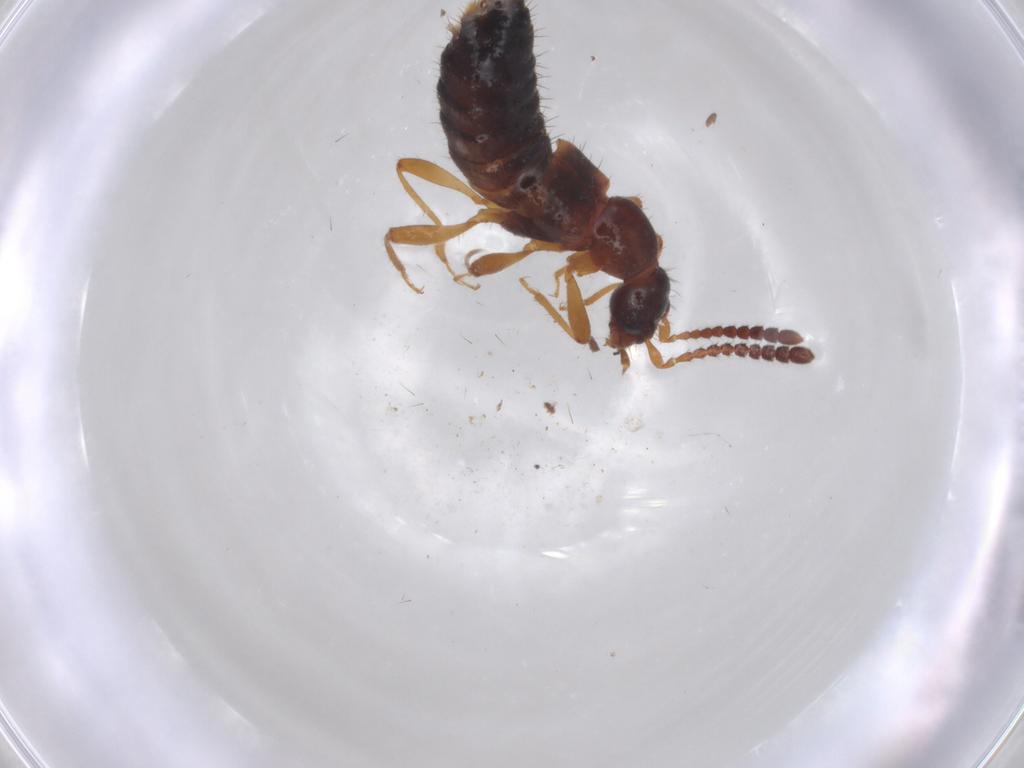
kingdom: Animalia
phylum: Arthropoda
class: Insecta
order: Coleoptera
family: Staphylinidae
